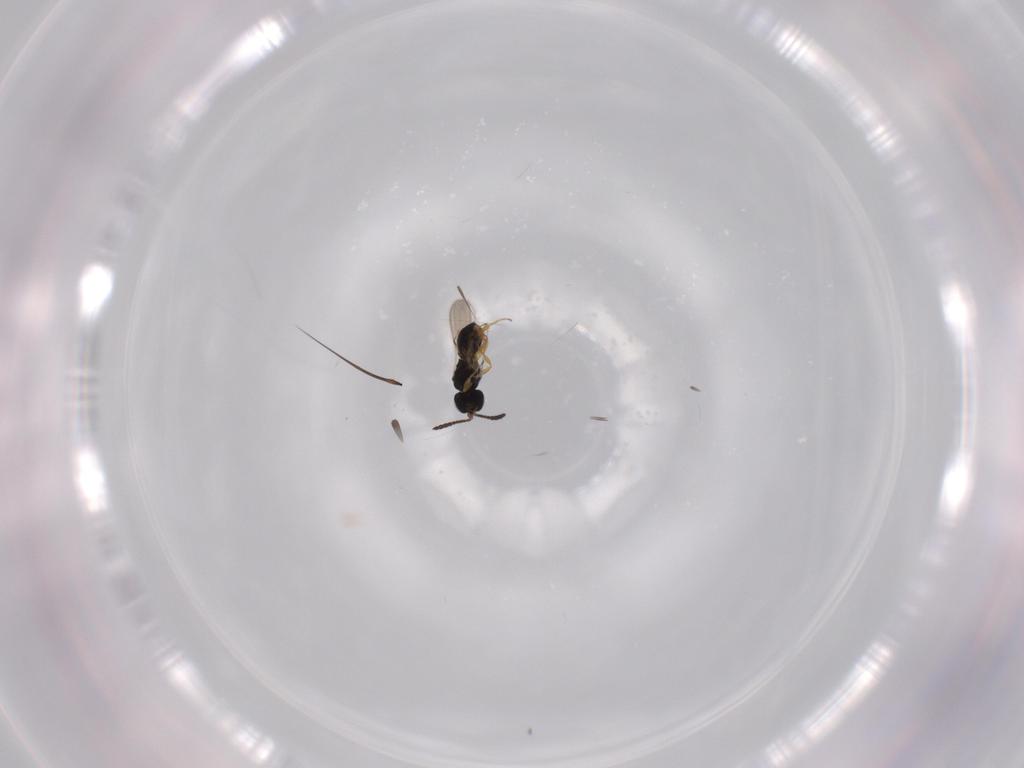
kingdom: Animalia
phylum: Arthropoda
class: Insecta
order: Hymenoptera
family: Scelionidae
